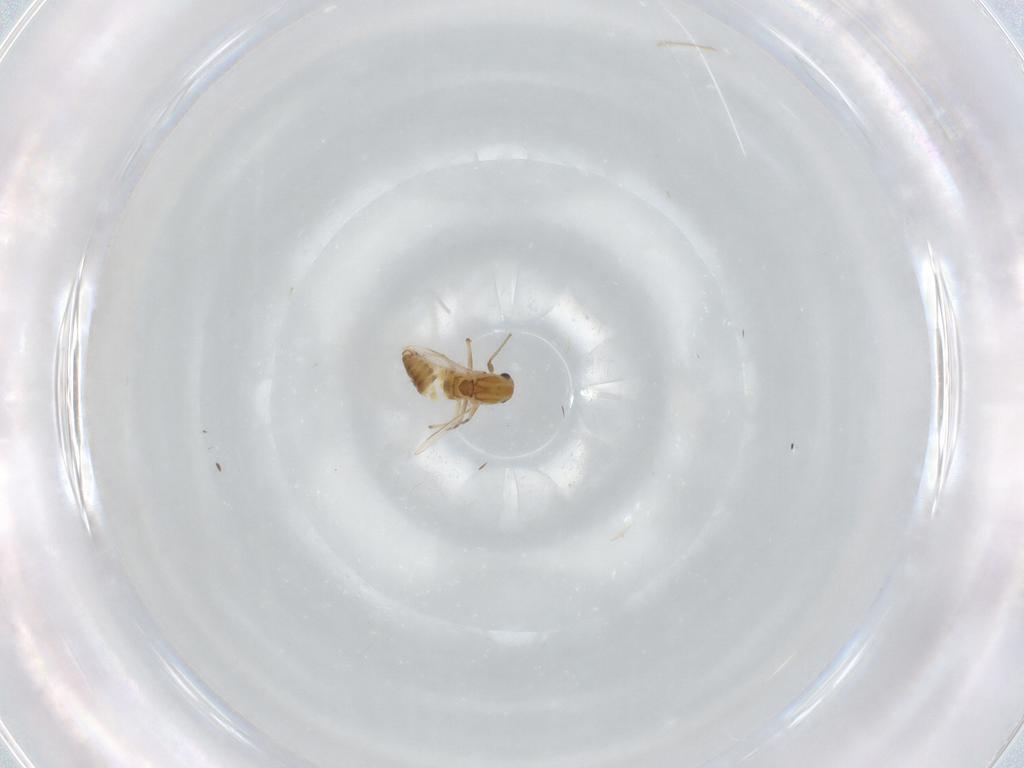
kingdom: Animalia
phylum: Arthropoda
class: Insecta
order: Diptera
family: Chironomidae
